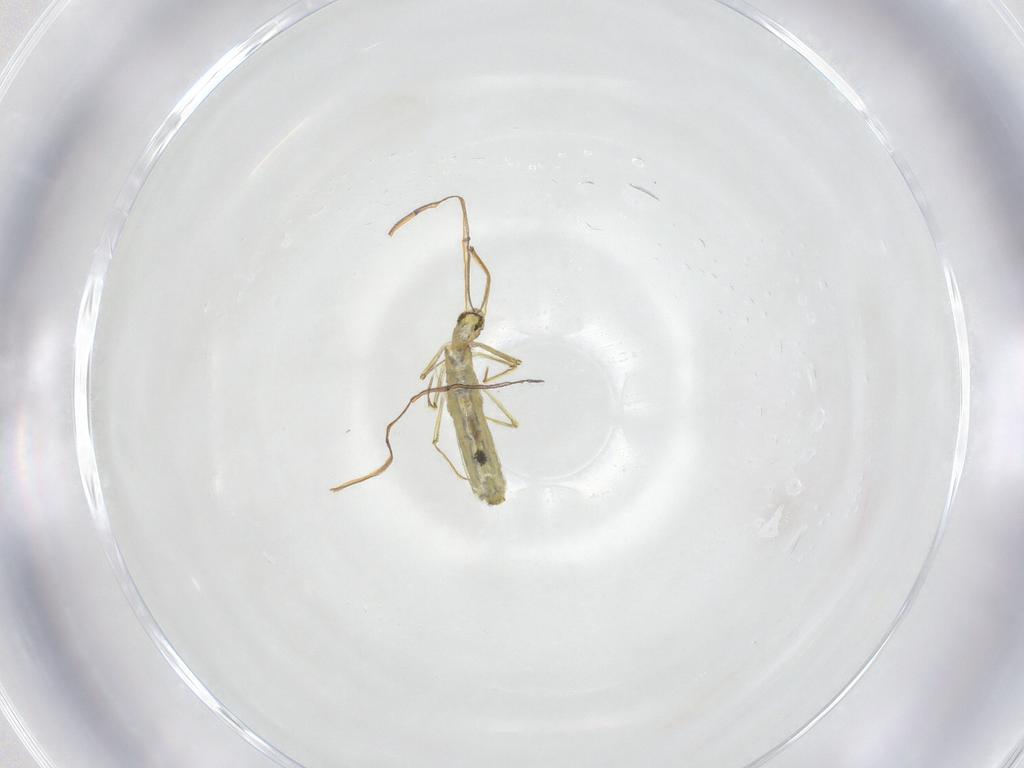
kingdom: Animalia
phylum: Arthropoda
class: Collembola
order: Entomobryomorpha
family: Entomobryidae
